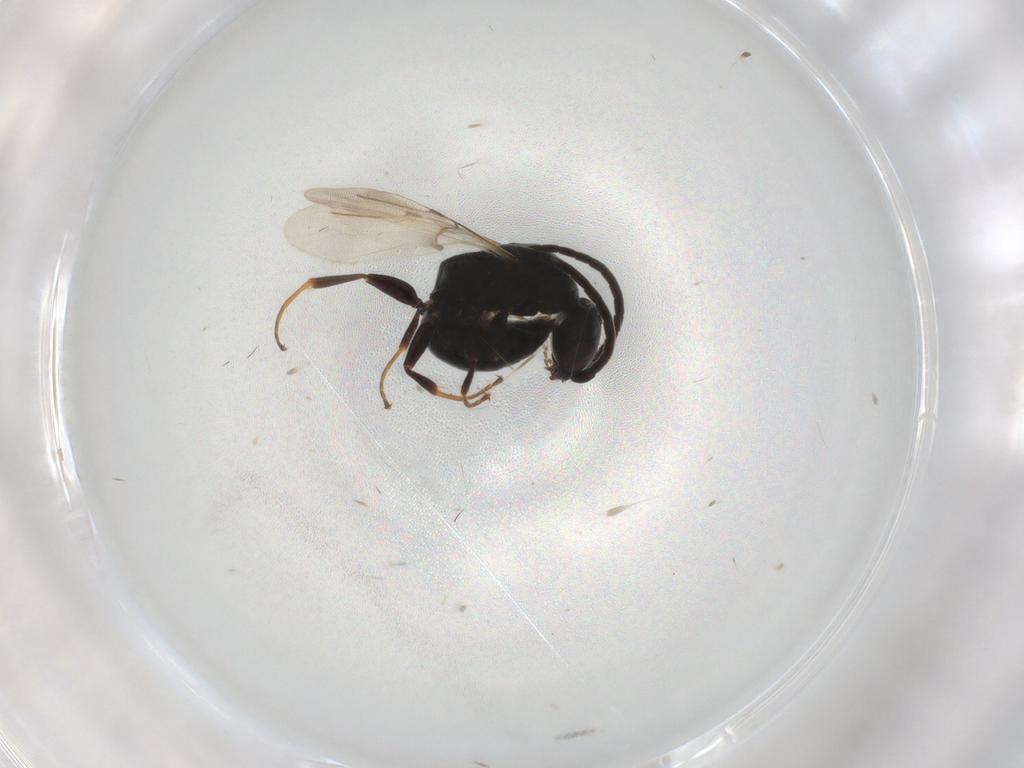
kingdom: Animalia
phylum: Arthropoda
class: Insecta
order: Hymenoptera
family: Bethylidae
